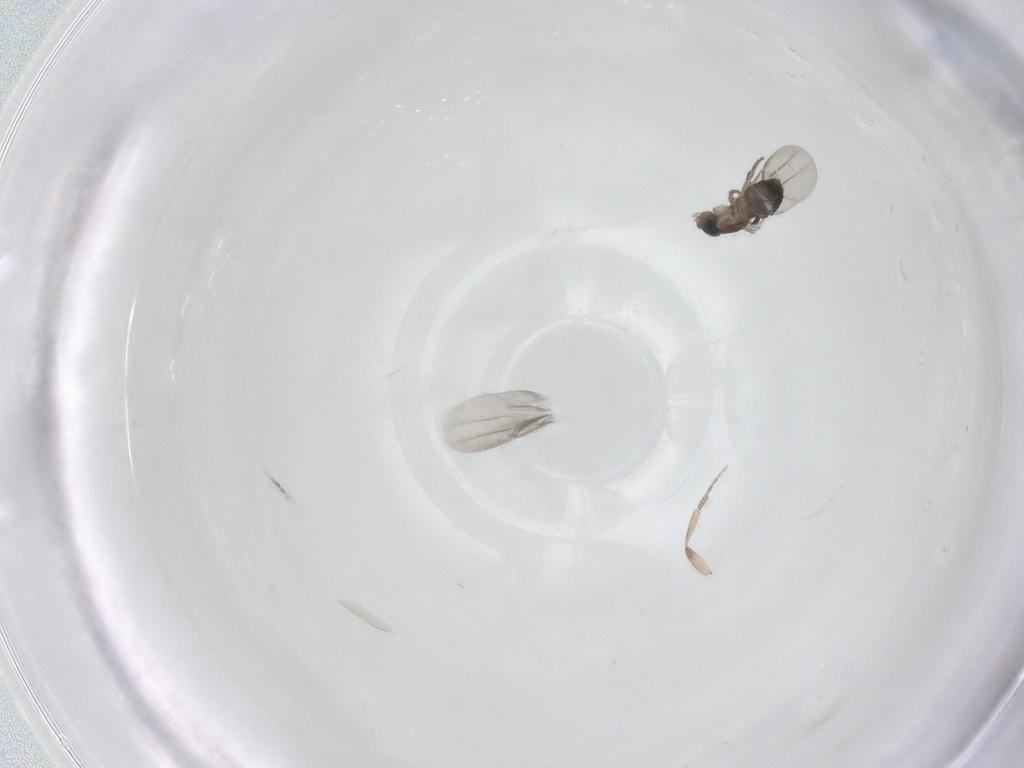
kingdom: Animalia
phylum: Arthropoda
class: Insecta
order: Diptera
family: Phoridae
